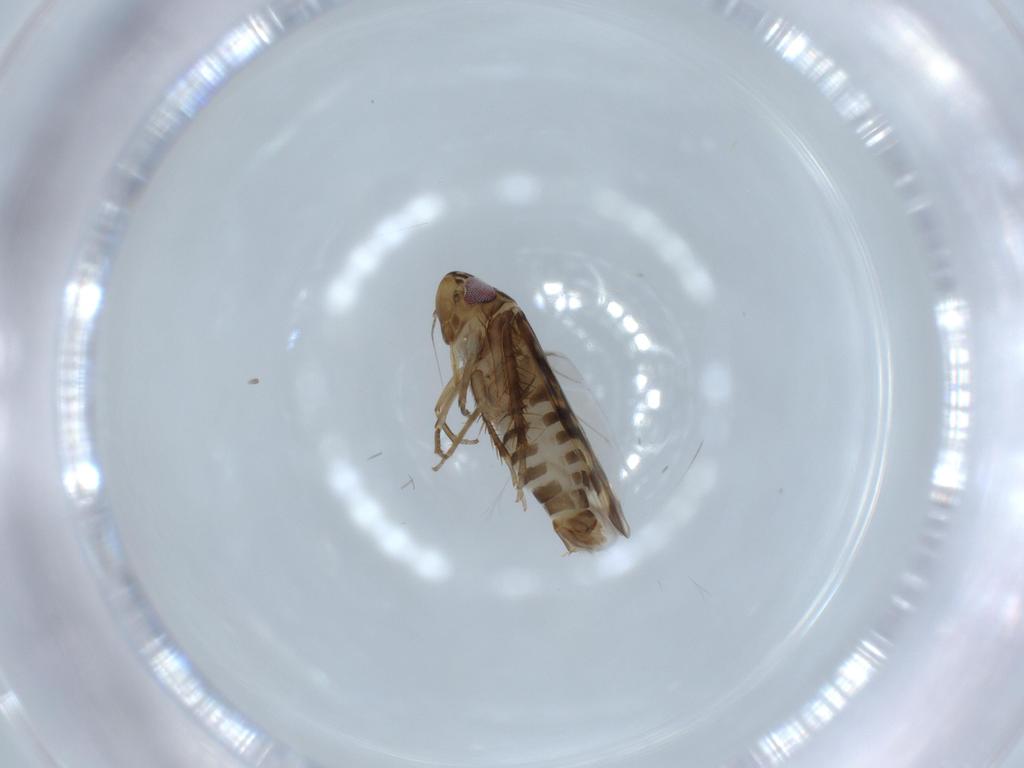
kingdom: Animalia
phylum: Arthropoda
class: Insecta
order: Hemiptera
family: Cicadellidae
